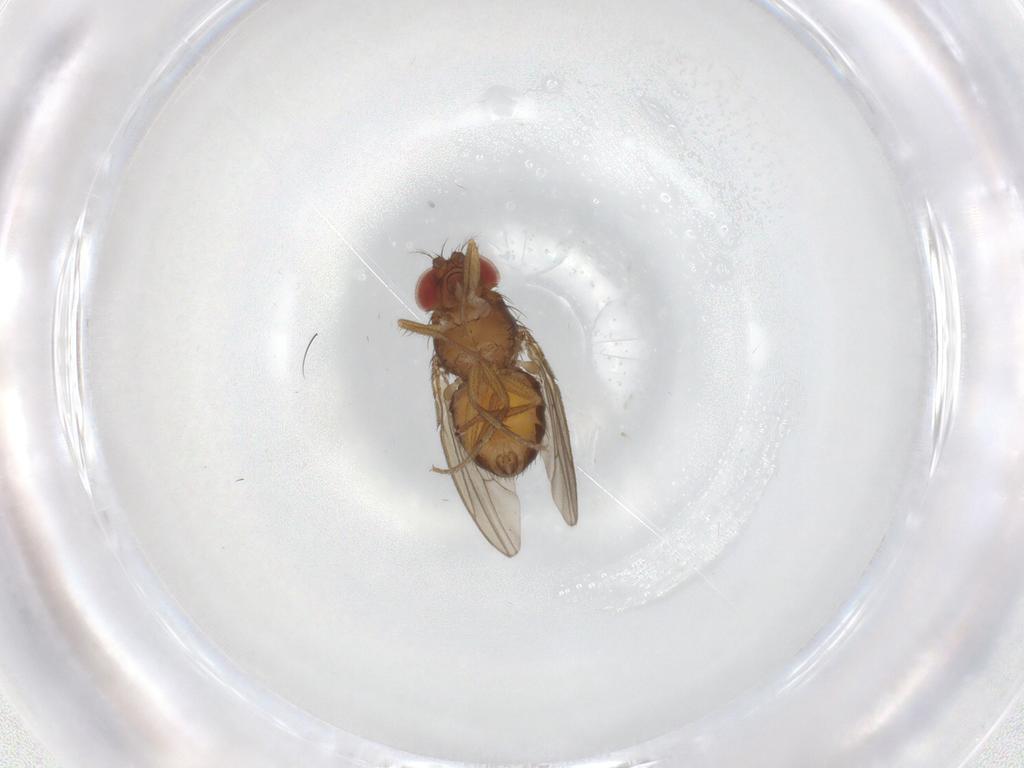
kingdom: Animalia
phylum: Arthropoda
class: Insecta
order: Diptera
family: Drosophilidae
